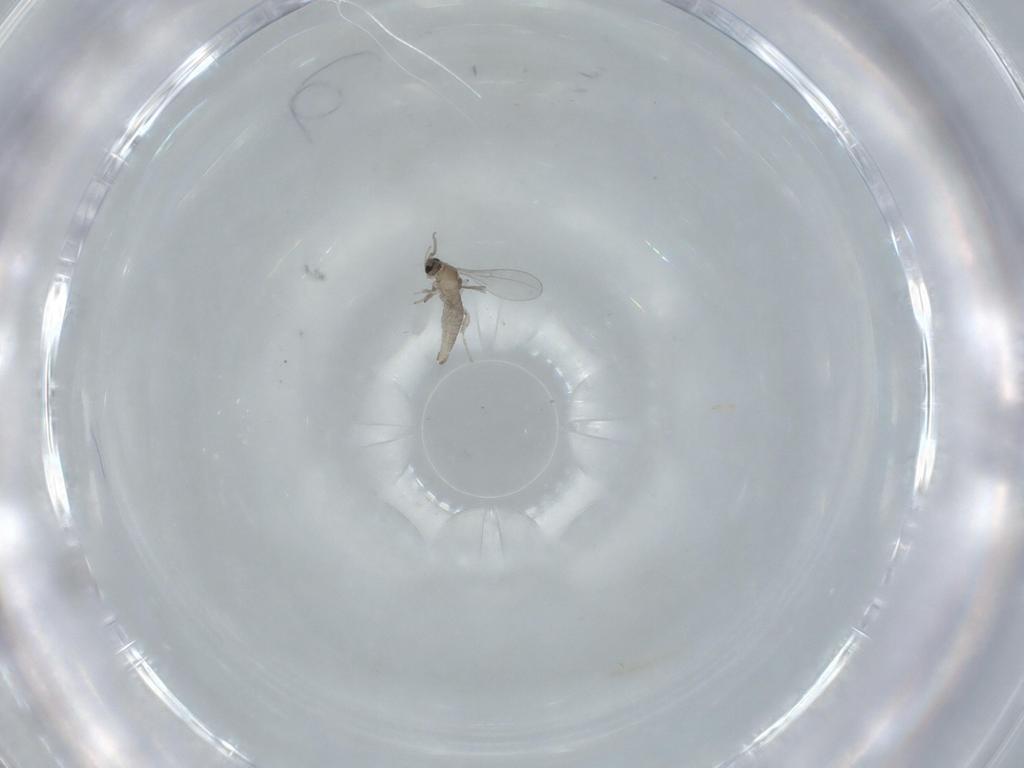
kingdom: Animalia
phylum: Arthropoda
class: Insecta
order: Diptera
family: Cecidomyiidae
